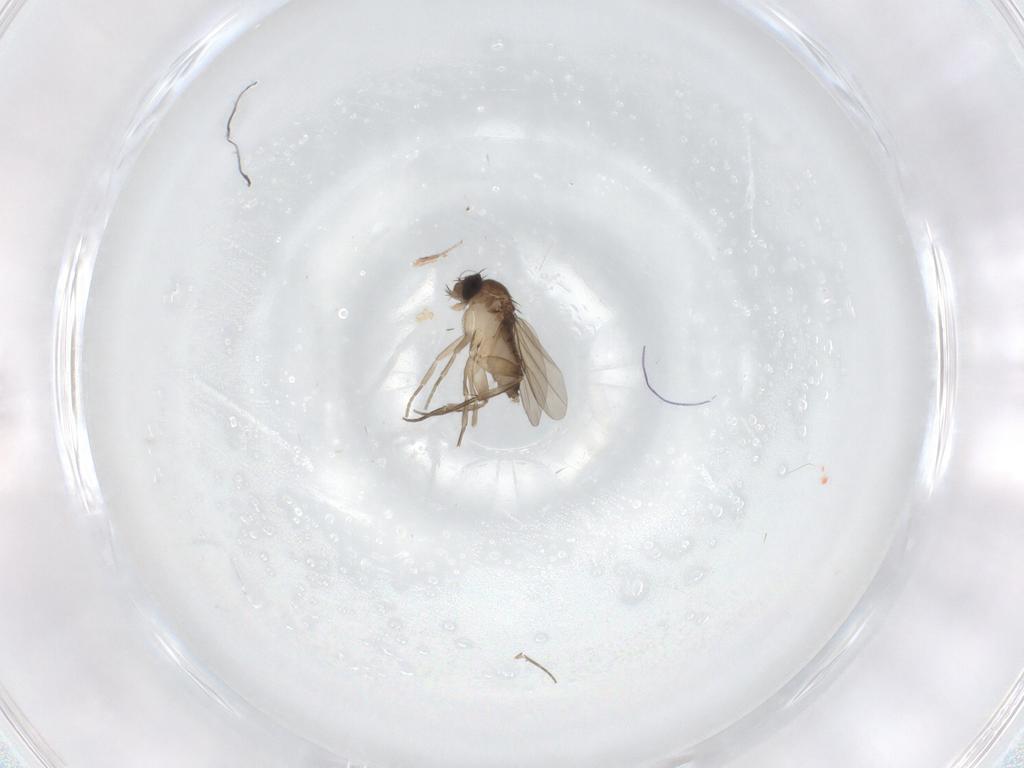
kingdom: Animalia
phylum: Arthropoda
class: Insecta
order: Diptera
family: Phoridae
